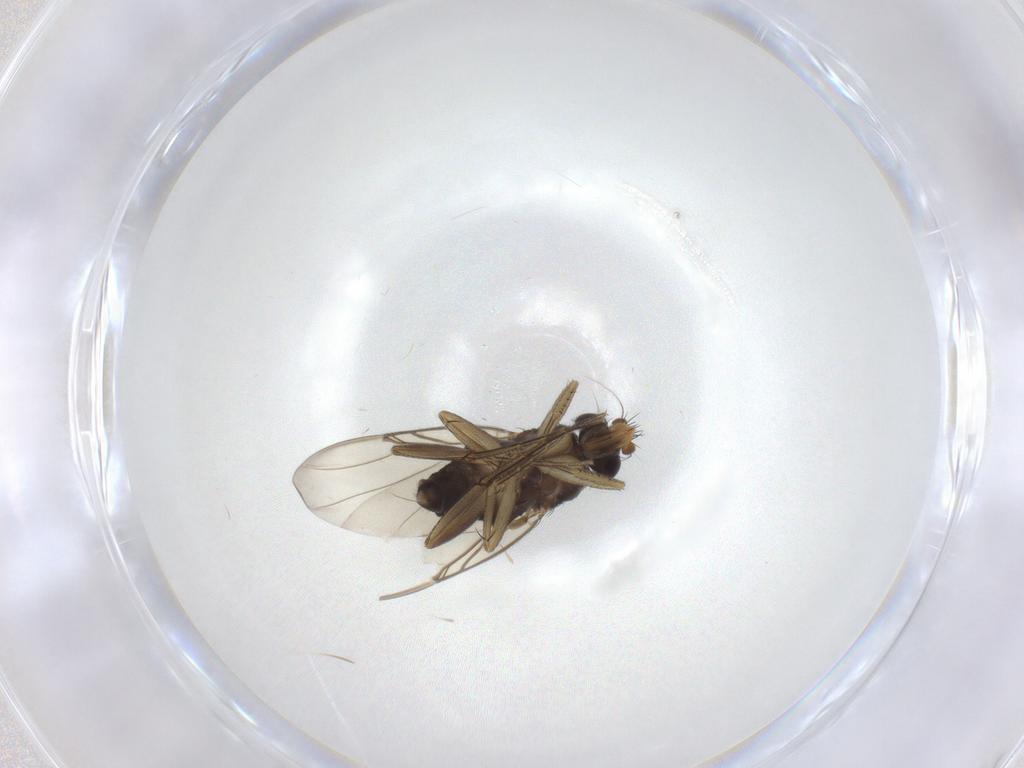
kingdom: Animalia
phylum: Arthropoda
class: Insecta
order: Diptera
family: Phoridae
